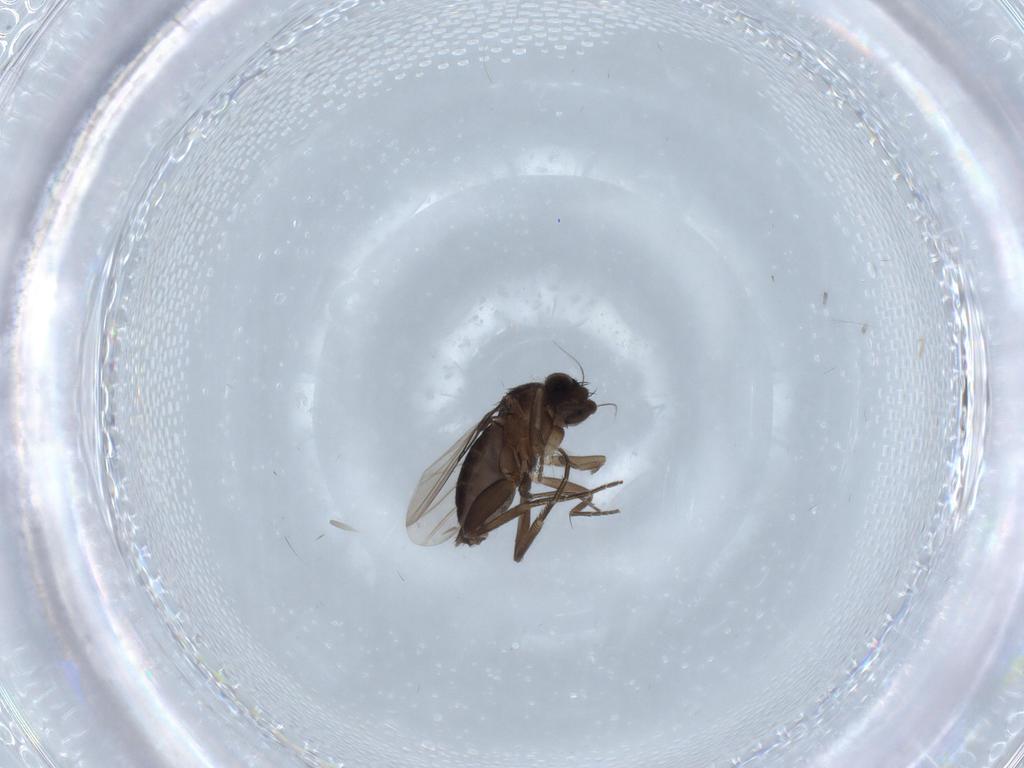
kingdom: Animalia
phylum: Arthropoda
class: Insecta
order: Diptera
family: Phoridae
